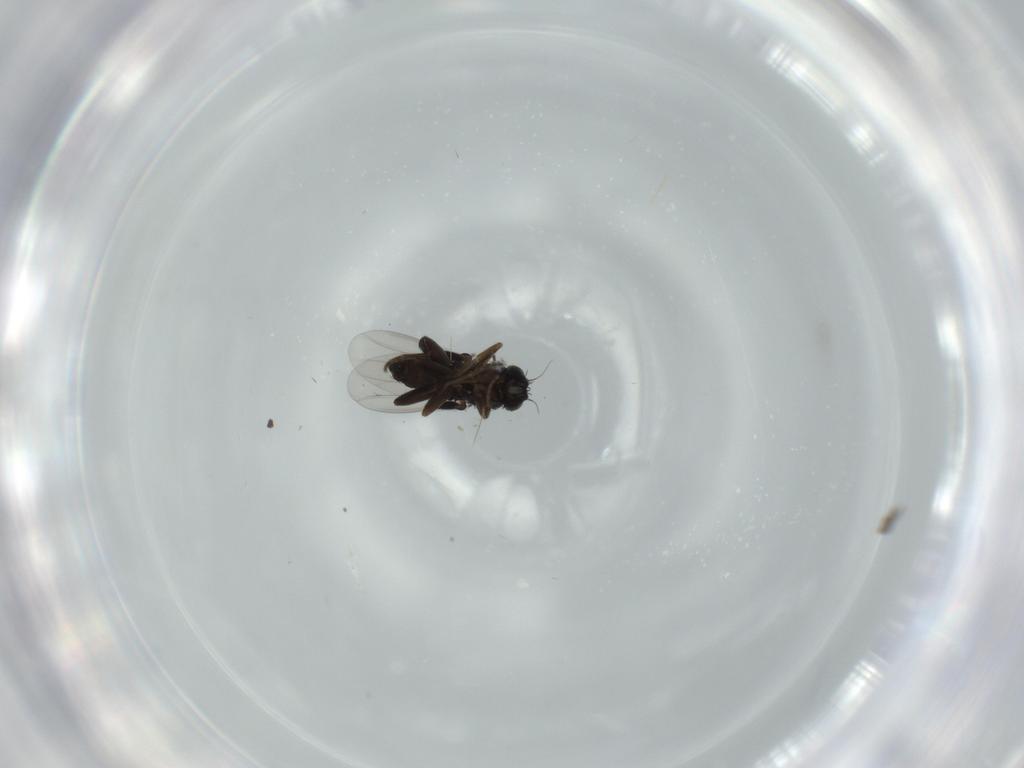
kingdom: Animalia
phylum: Arthropoda
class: Insecta
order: Diptera
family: Phoridae
